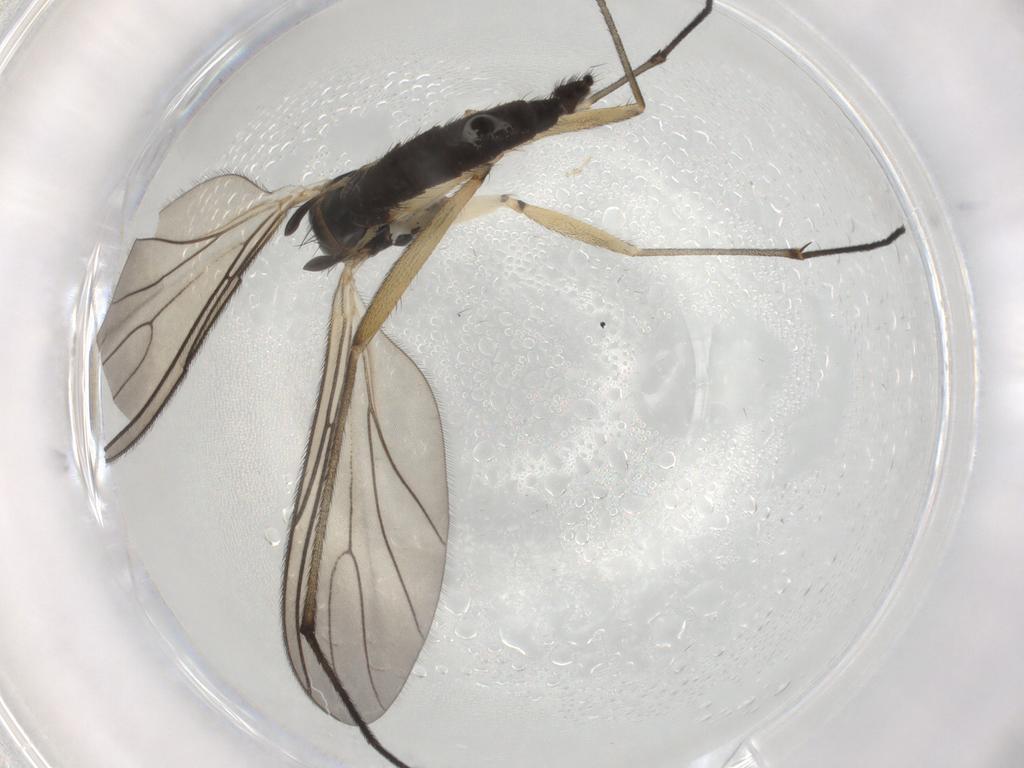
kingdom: Animalia
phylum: Arthropoda
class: Insecta
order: Diptera
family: Sciaridae
